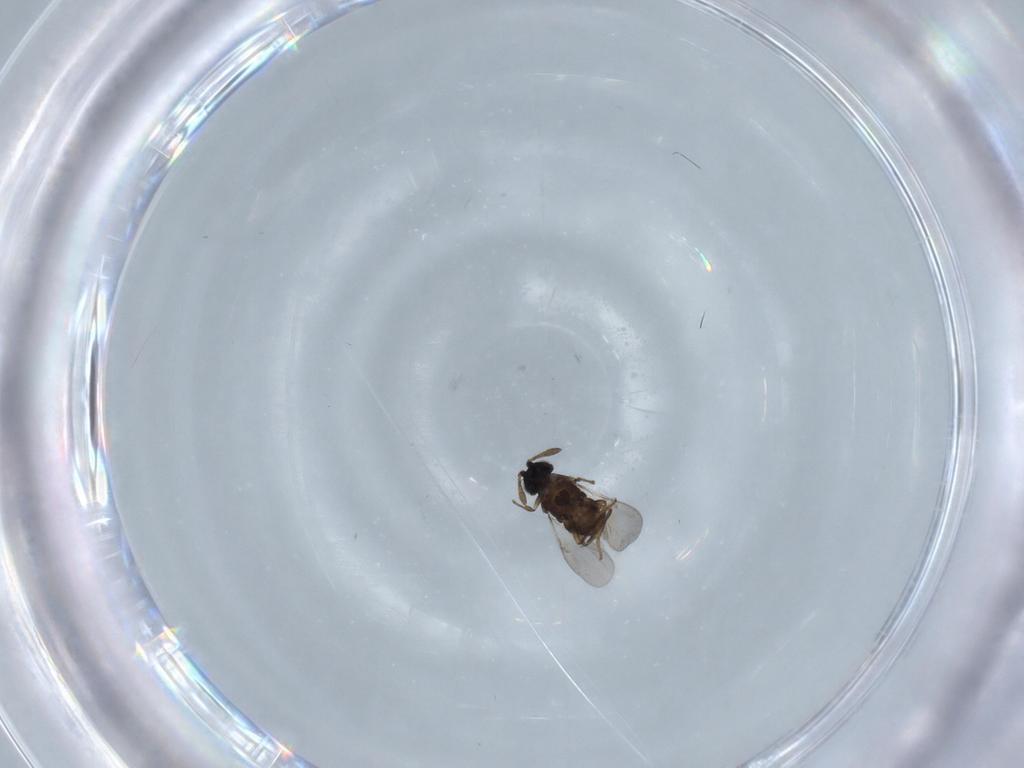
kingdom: Animalia
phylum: Arthropoda
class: Insecta
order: Hymenoptera
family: Encyrtidae
